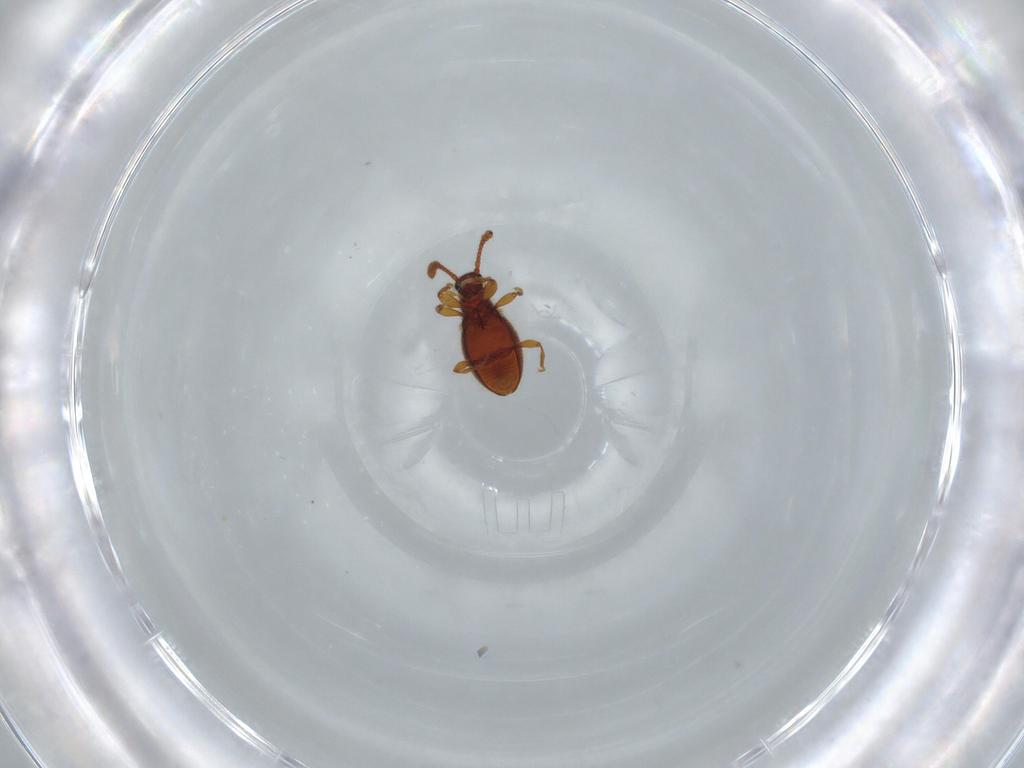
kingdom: Animalia
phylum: Arthropoda
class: Insecta
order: Coleoptera
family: Staphylinidae
